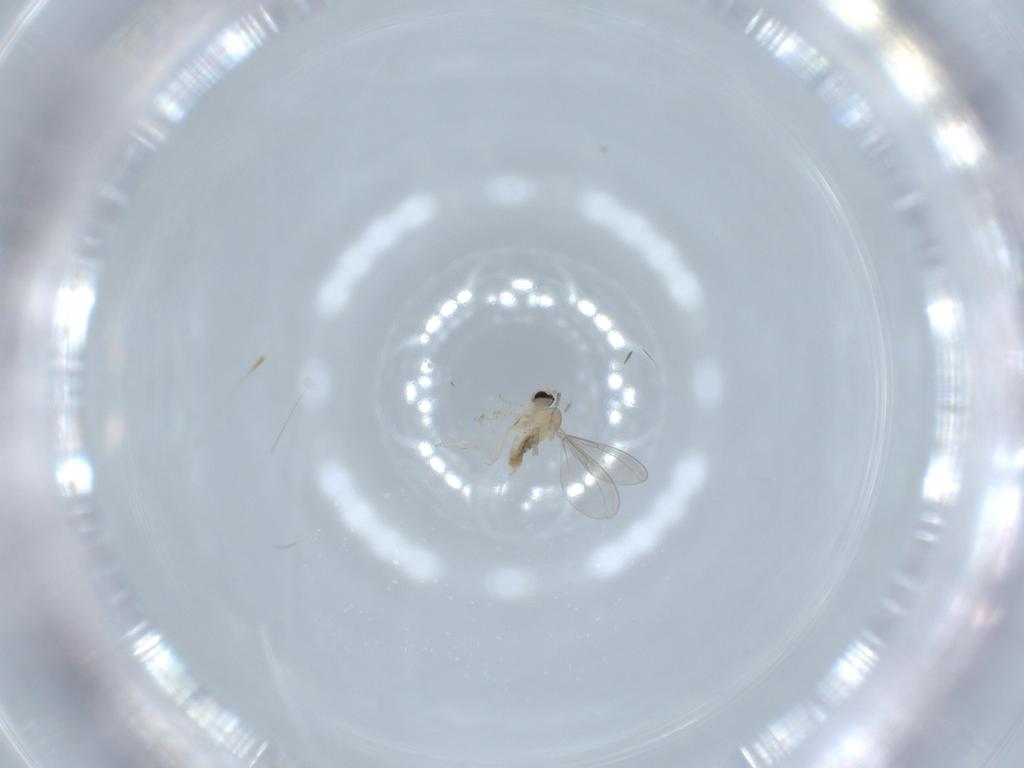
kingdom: Animalia
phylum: Arthropoda
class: Insecta
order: Diptera
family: Cecidomyiidae
